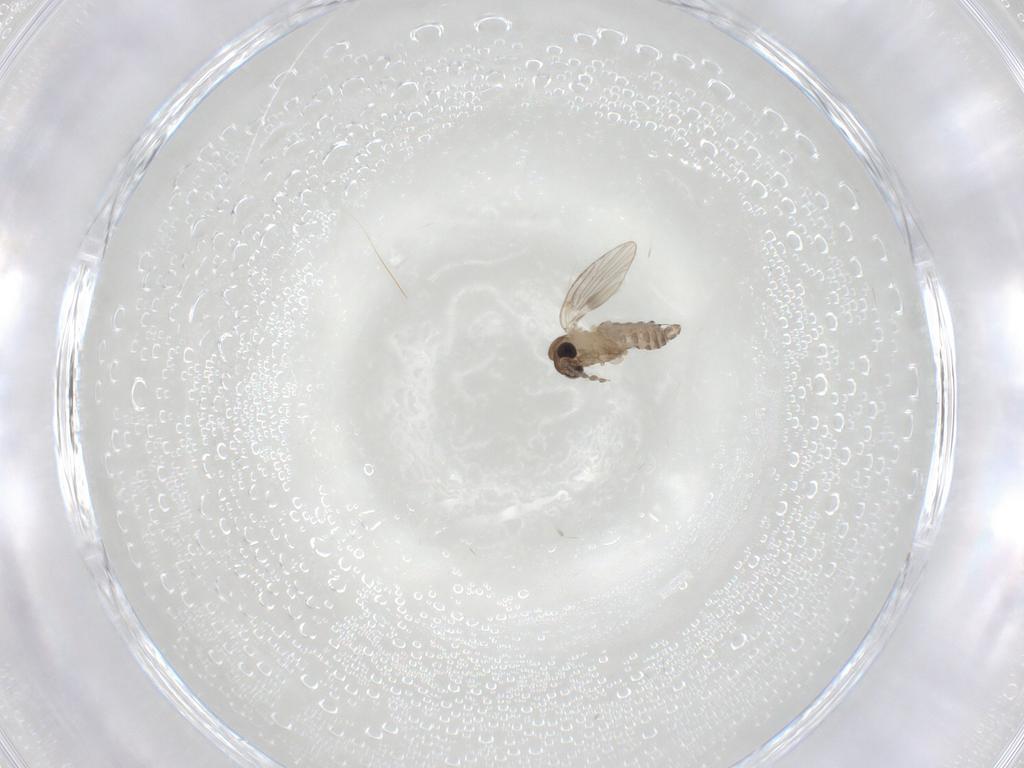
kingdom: Animalia
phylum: Arthropoda
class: Insecta
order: Diptera
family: Psychodidae
